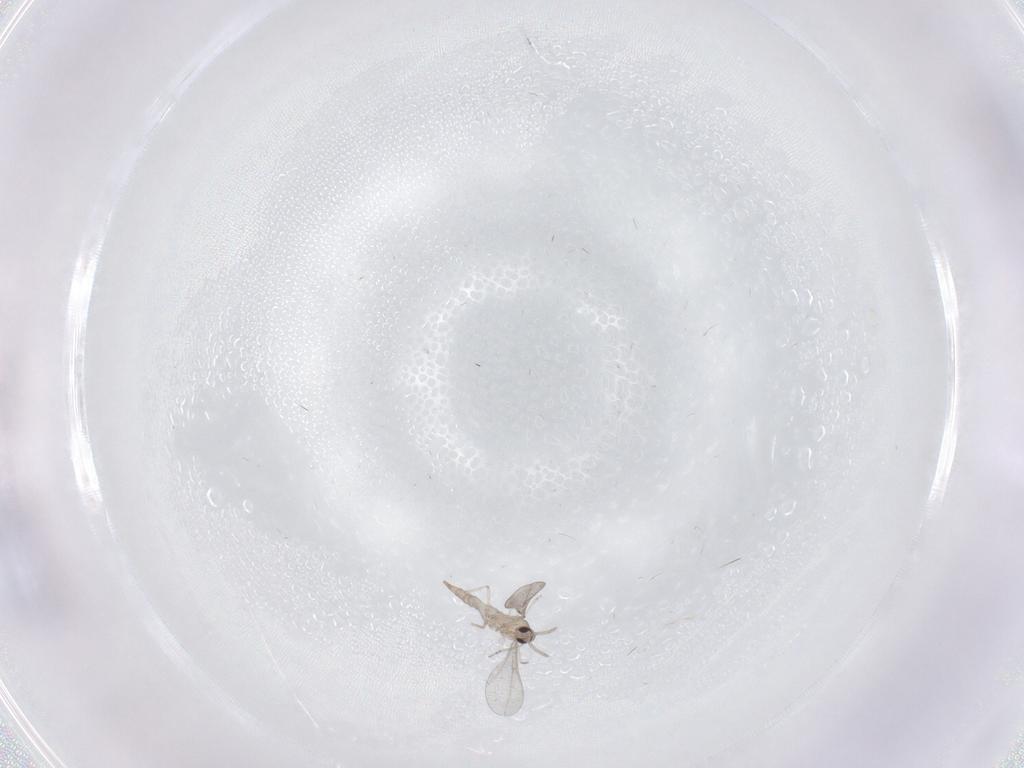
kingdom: Animalia
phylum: Arthropoda
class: Insecta
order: Diptera
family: Cecidomyiidae
